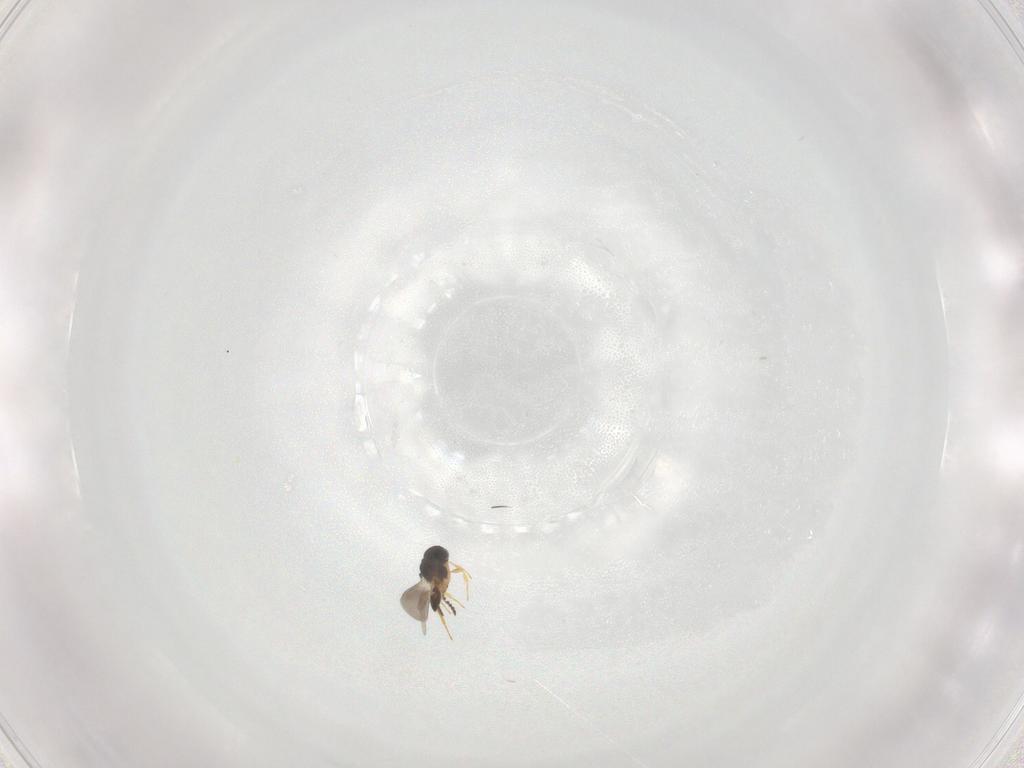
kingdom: Animalia
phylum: Arthropoda
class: Insecta
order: Hymenoptera
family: Platygastridae
